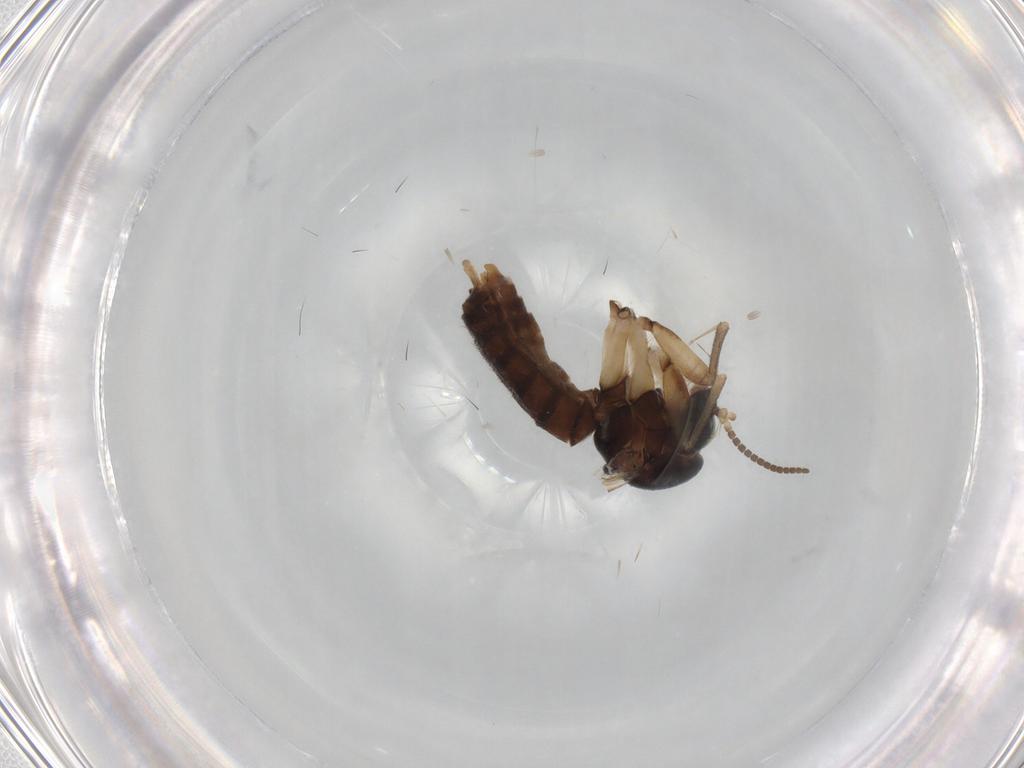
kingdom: Animalia
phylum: Arthropoda
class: Insecta
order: Diptera
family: Chironomidae
